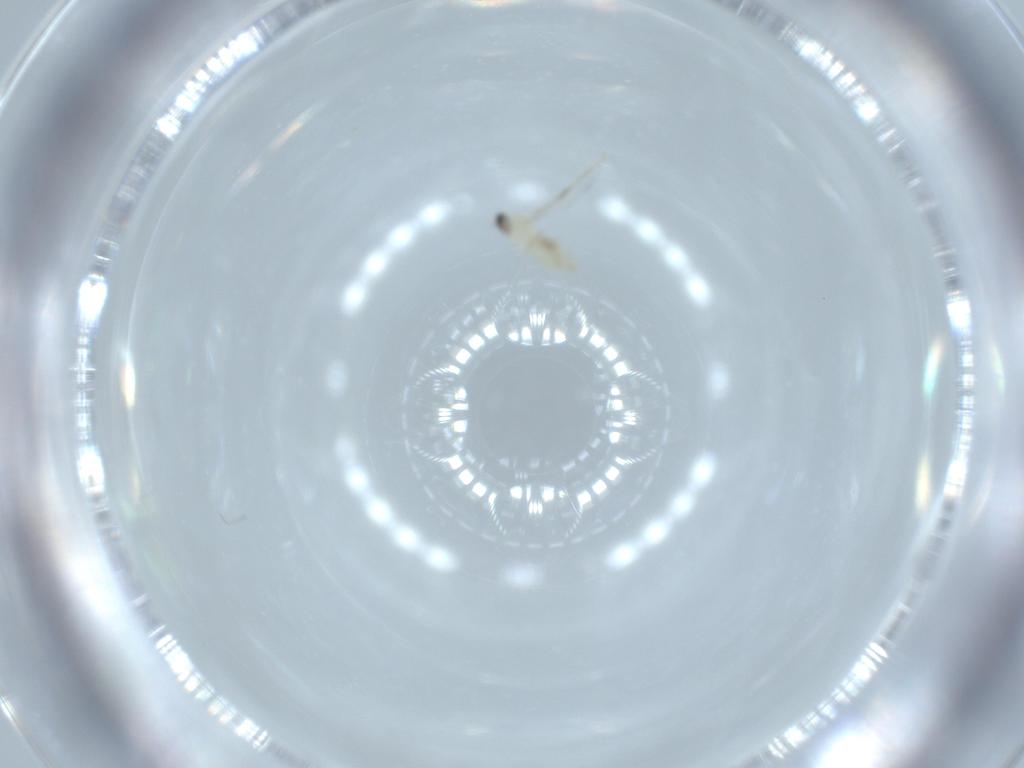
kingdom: Animalia
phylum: Arthropoda
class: Insecta
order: Diptera
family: Cecidomyiidae
